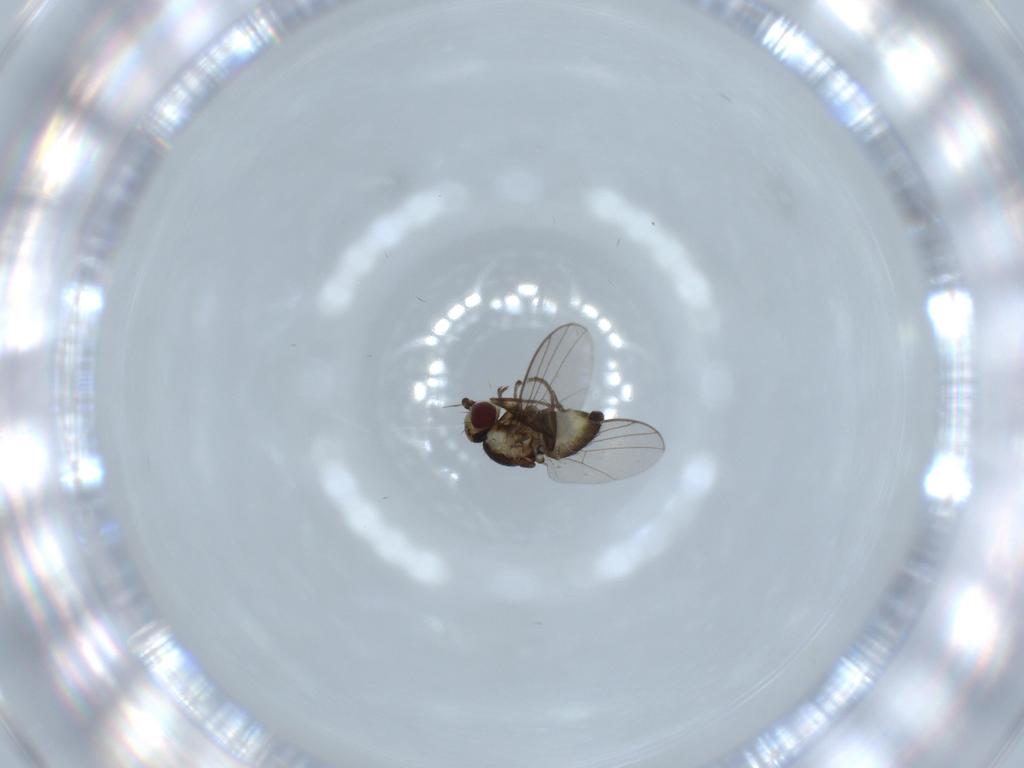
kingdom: Animalia
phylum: Arthropoda
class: Insecta
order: Diptera
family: Agromyzidae
